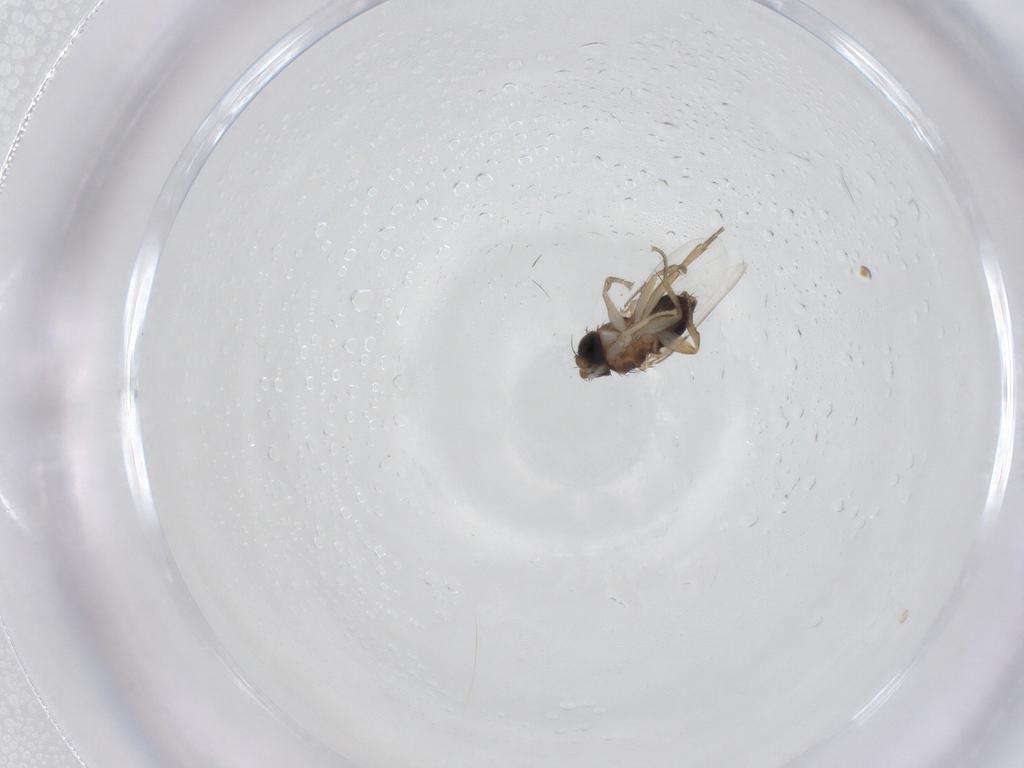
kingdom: Animalia
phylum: Arthropoda
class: Insecta
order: Diptera
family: Phoridae
